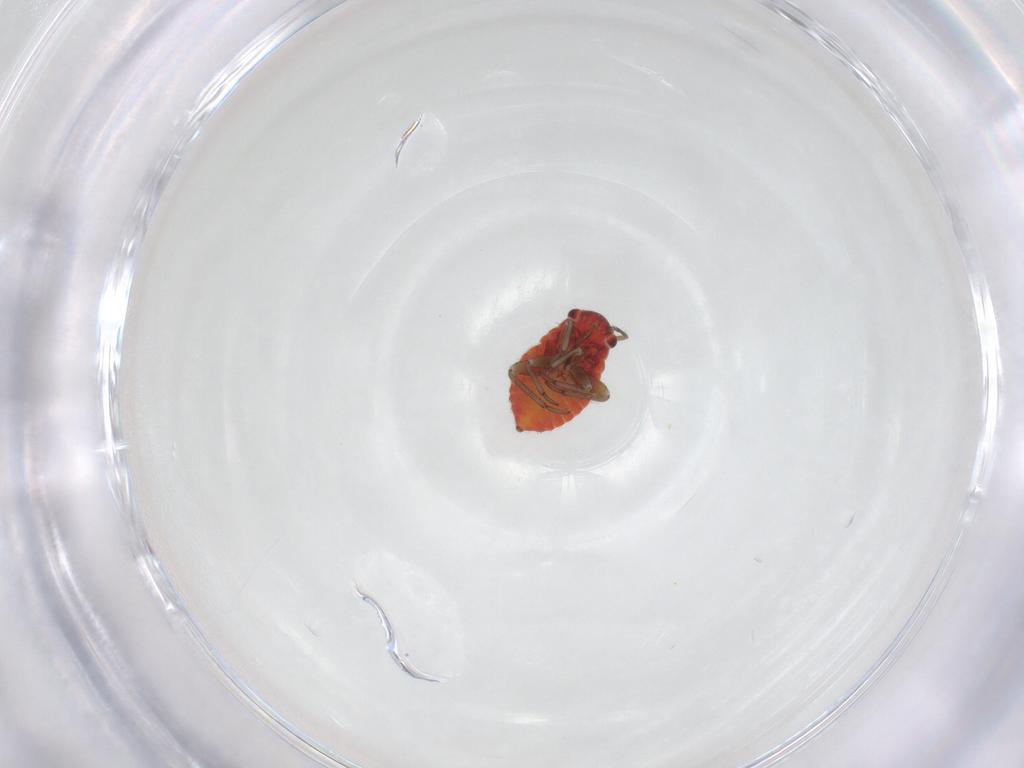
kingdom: Animalia
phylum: Arthropoda
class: Insecta
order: Hemiptera
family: Miridae
